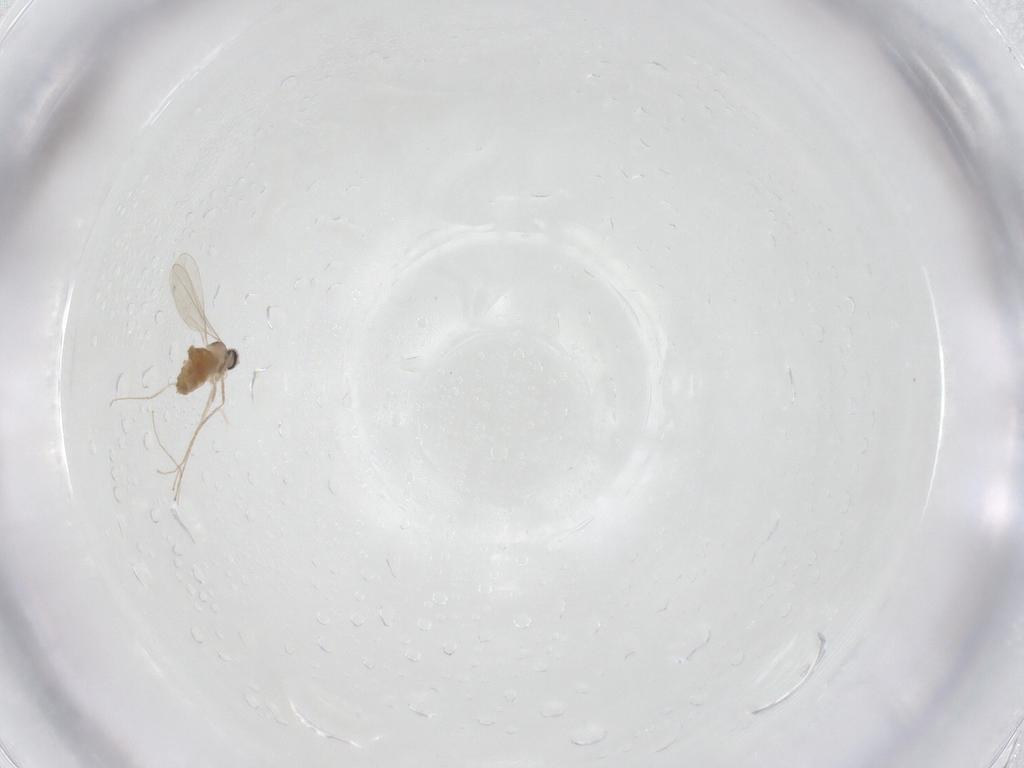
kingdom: Animalia
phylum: Arthropoda
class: Insecta
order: Diptera
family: Cecidomyiidae
